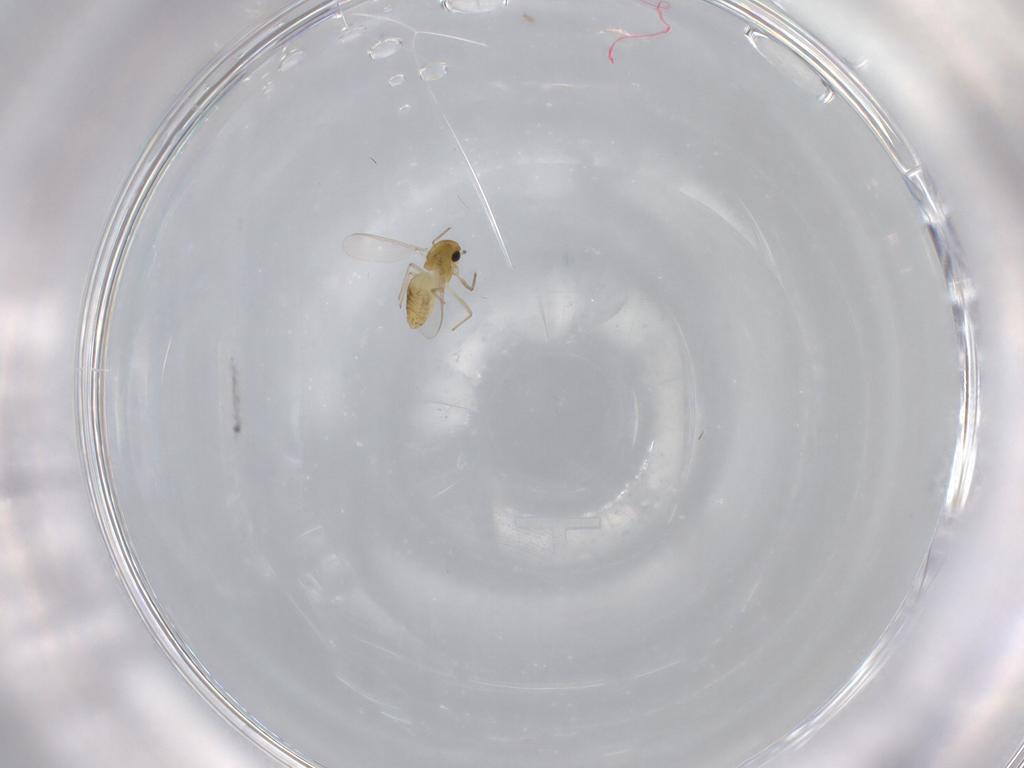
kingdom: Animalia
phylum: Arthropoda
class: Insecta
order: Diptera
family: Chironomidae
